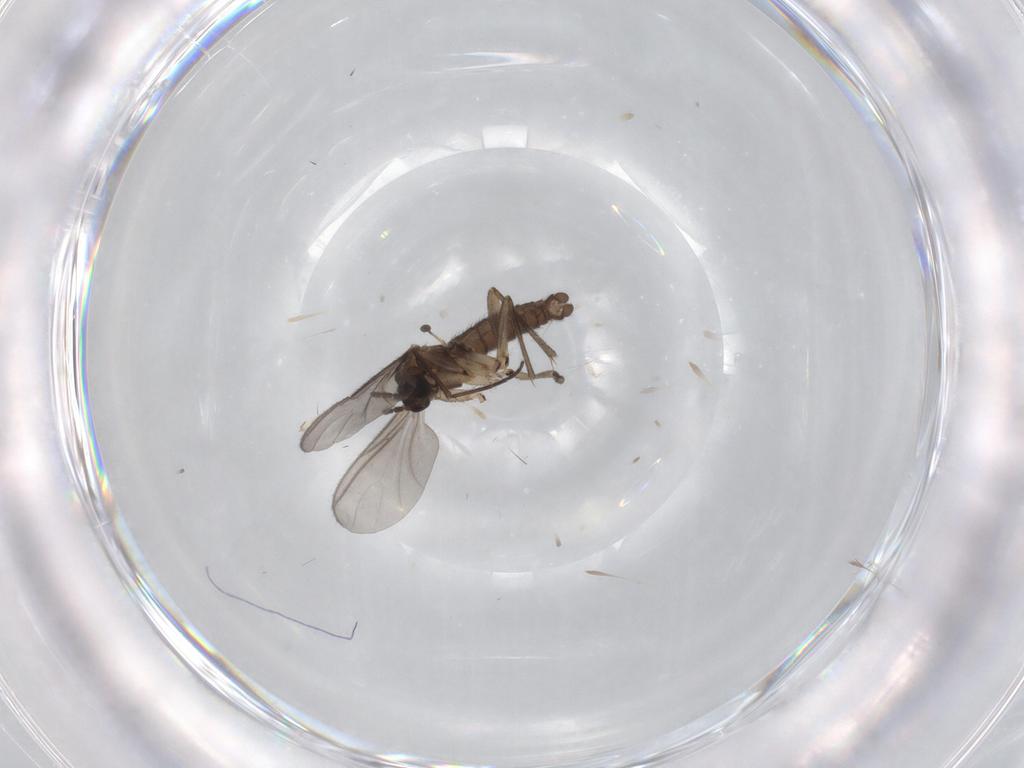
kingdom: Animalia
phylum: Arthropoda
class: Insecta
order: Diptera
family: Sciaridae
